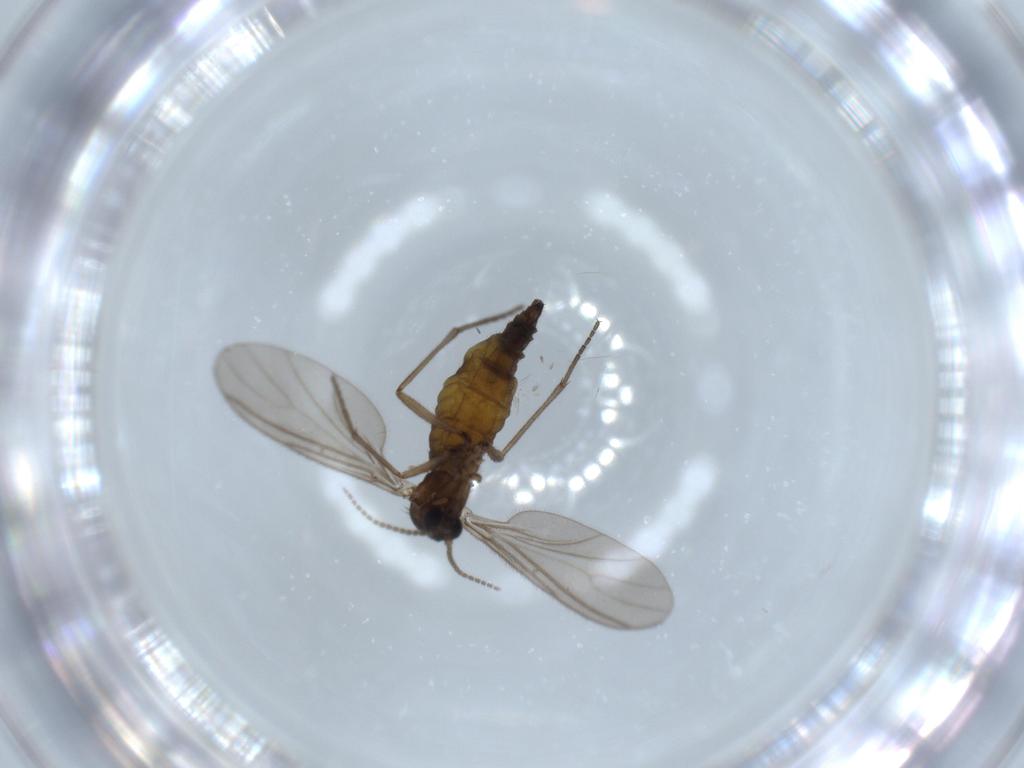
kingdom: Animalia
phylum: Arthropoda
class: Insecta
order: Diptera
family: Sciaridae
